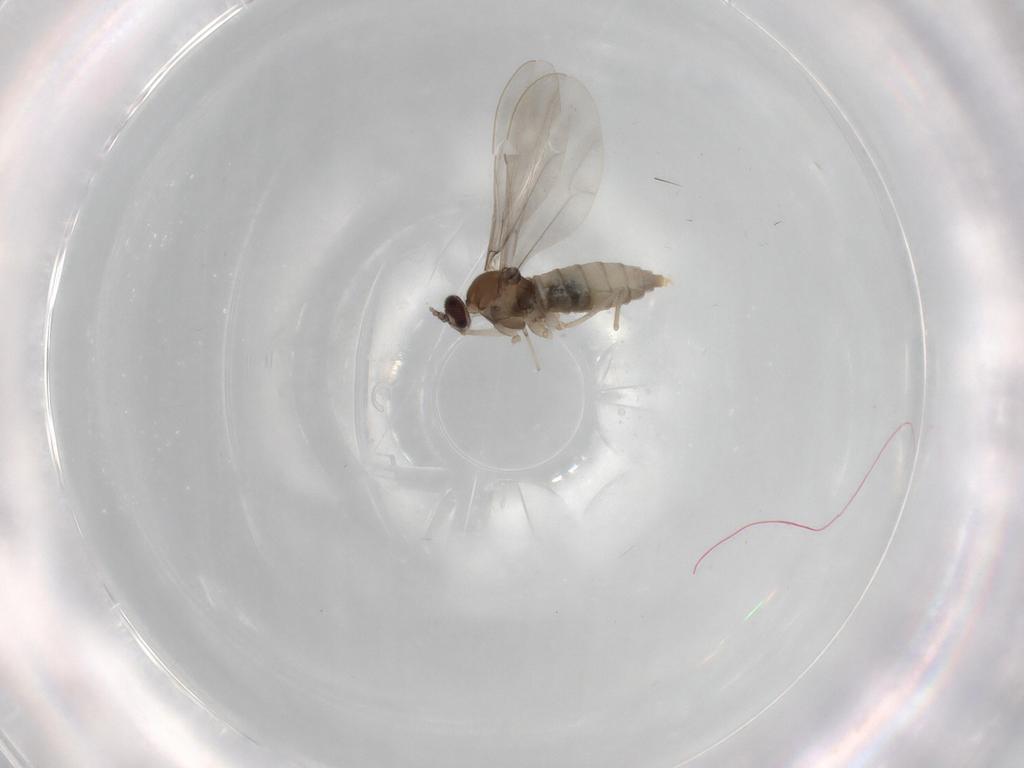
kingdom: Animalia
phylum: Arthropoda
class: Insecta
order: Diptera
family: Cecidomyiidae
